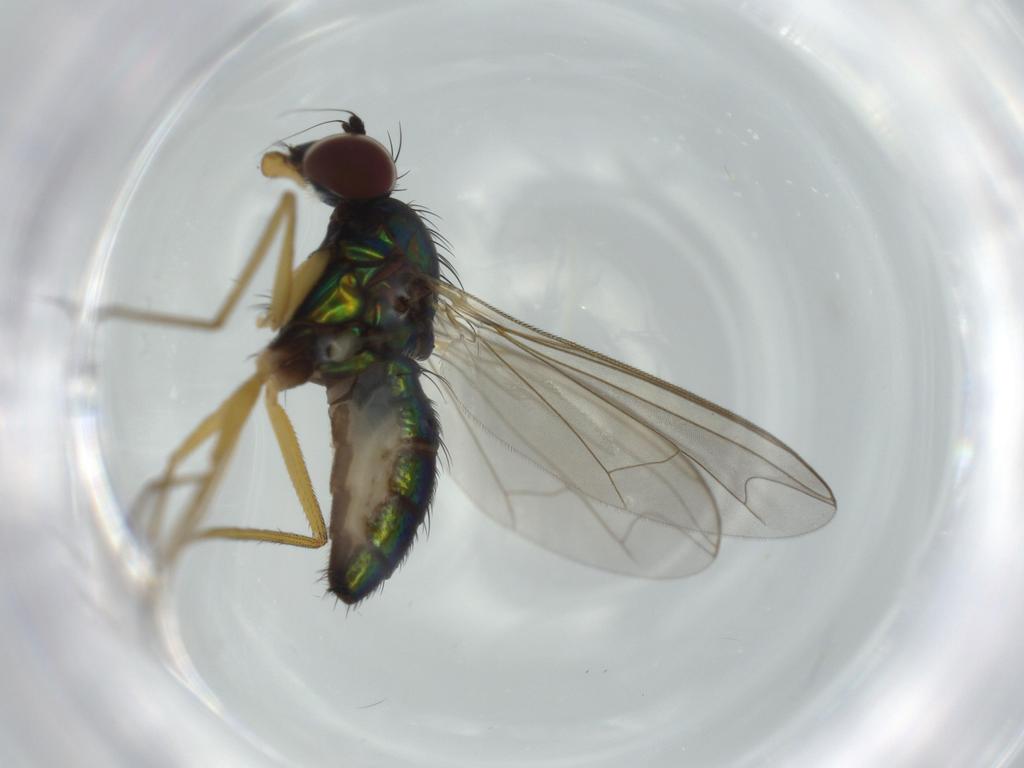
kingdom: Animalia
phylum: Arthropoda
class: Insecta
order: Diptera
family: Dolichopodidae
